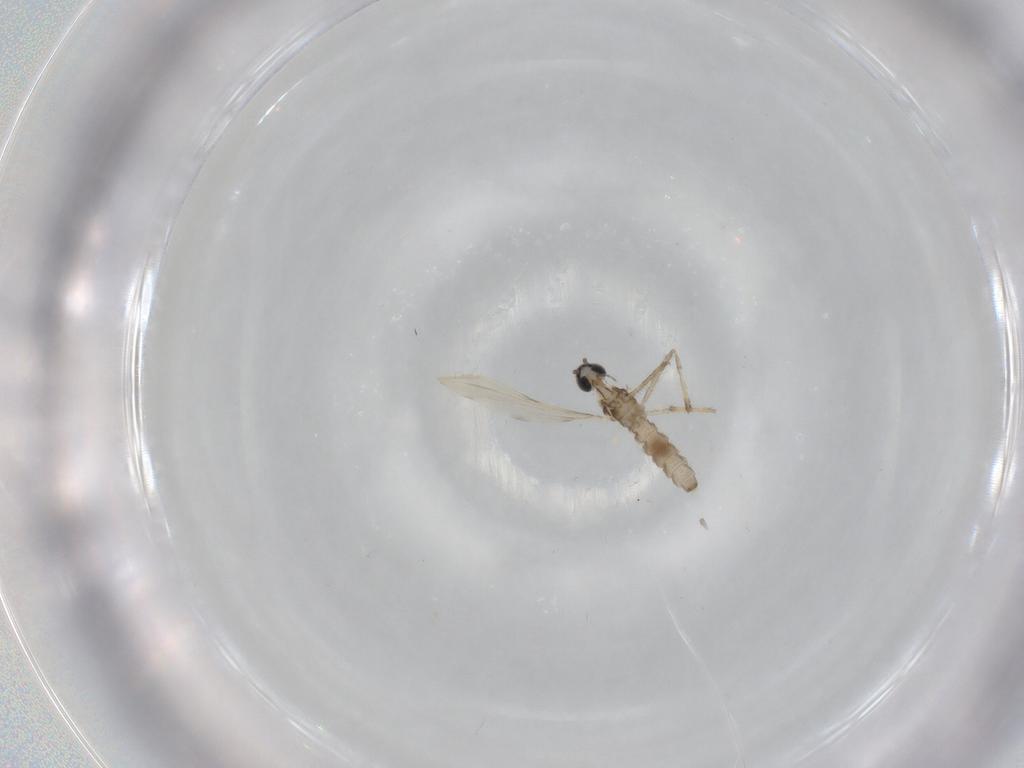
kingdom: Animalia
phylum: Arthropoda
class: Insecta
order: Diptera
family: Cecidomyiidae
